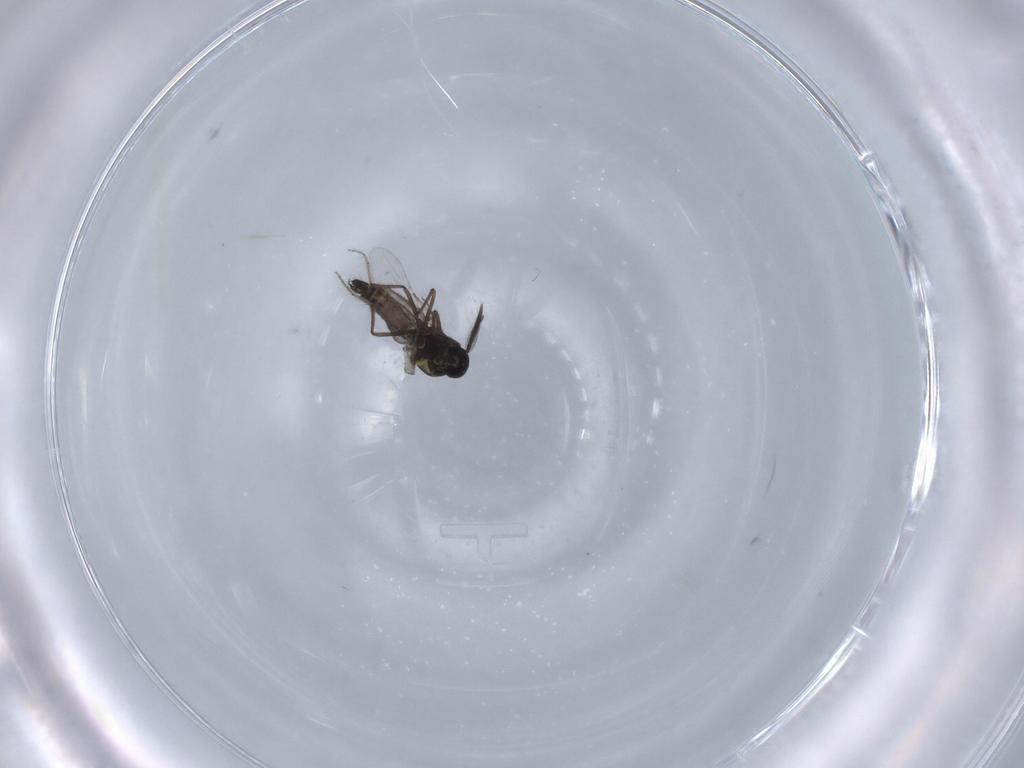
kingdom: Animalia
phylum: Arthropoda
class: Insecta
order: Diptera
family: Ceratopogonidae
